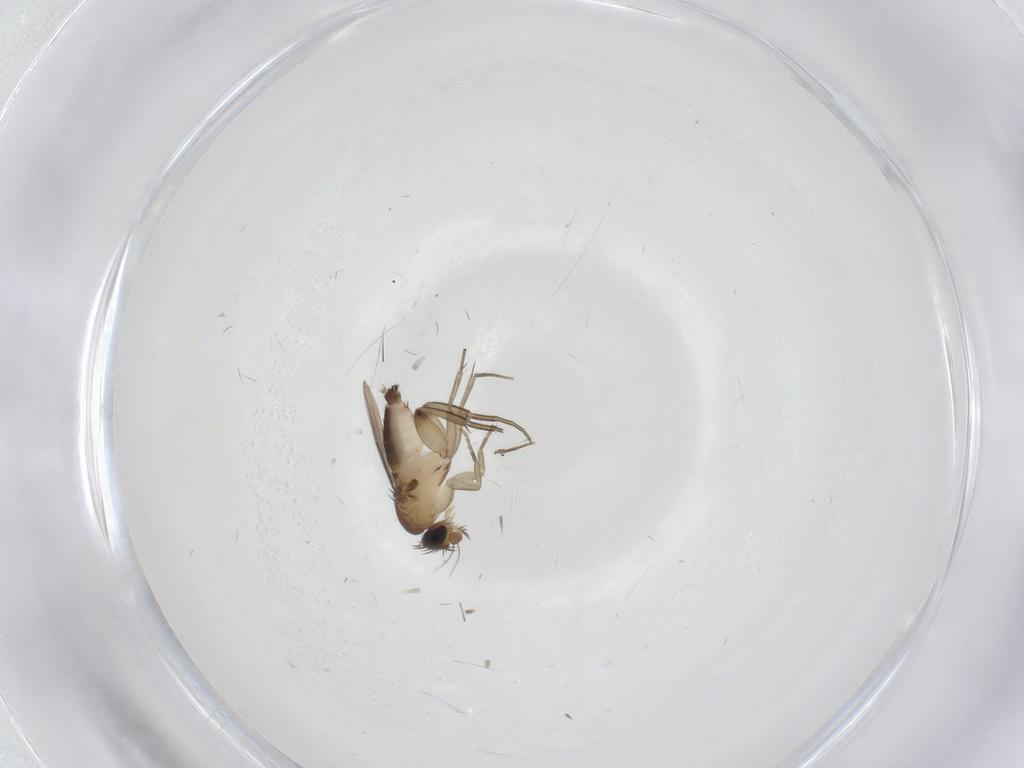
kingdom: Animalia
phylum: Arthropoda
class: Insecta
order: Diptera
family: Phoridae
